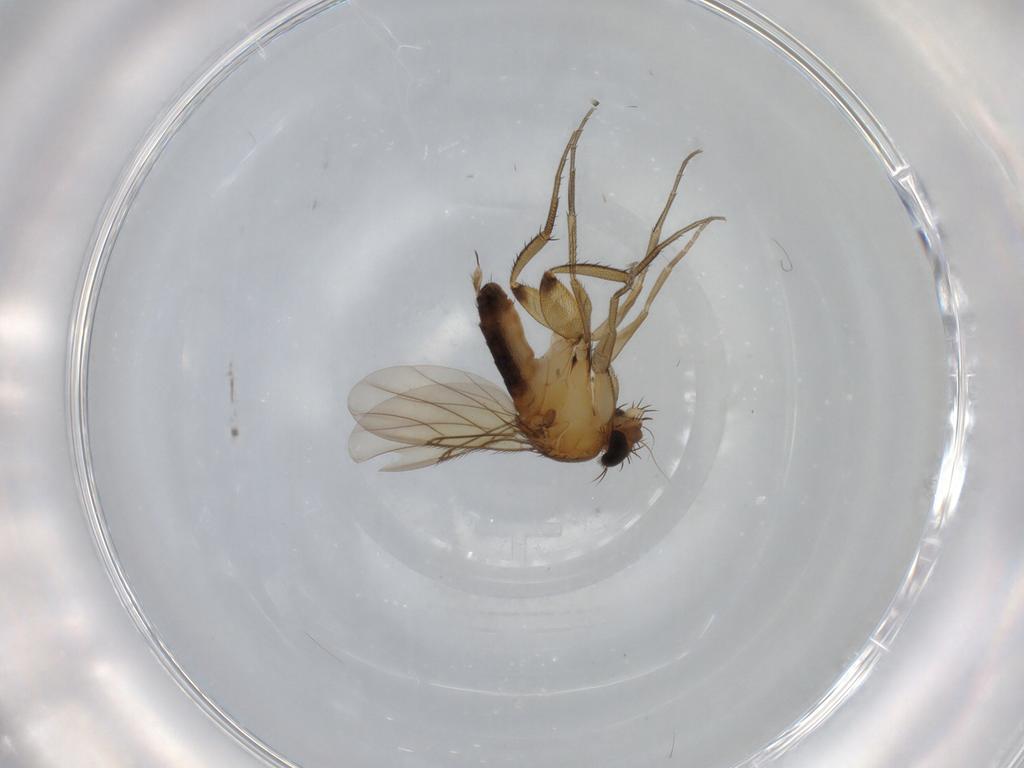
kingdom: Animalia
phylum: Arthropoda
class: Insecta
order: Diptera
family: Phoridae
